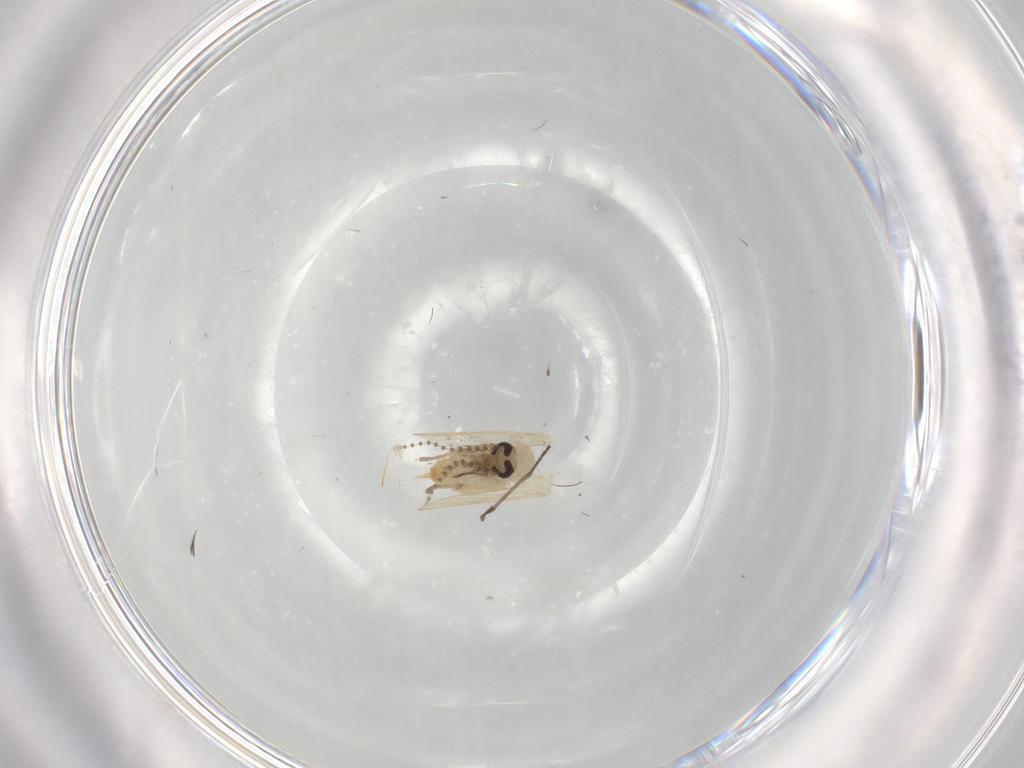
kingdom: Animalia
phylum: Arthropoda
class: Insecta
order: Diptera
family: Psychodidae
